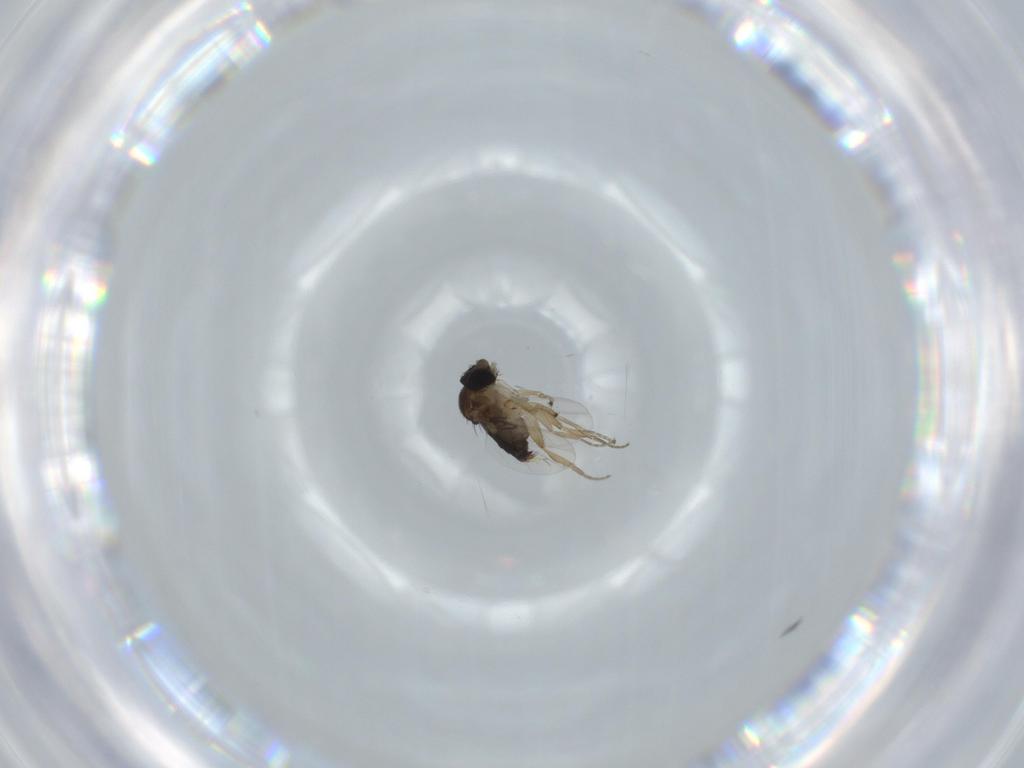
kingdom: Animalia
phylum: Arthropoda
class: Insecta
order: Diptera
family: Phoridae
